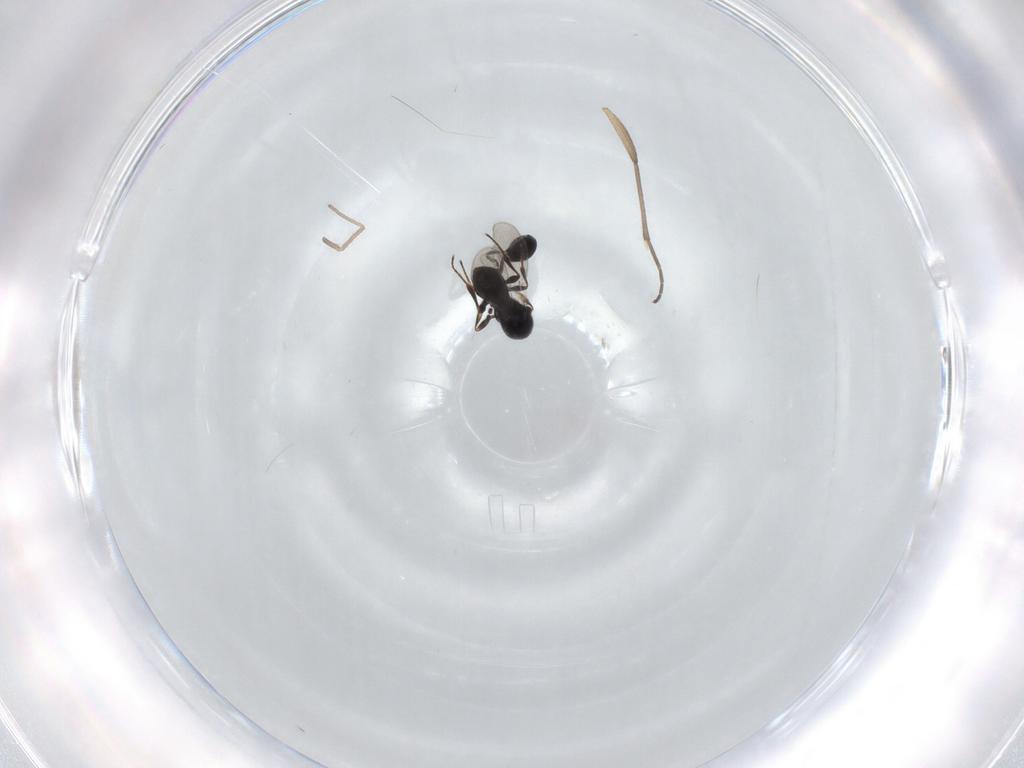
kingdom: Animalia
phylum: Arthropoda
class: Insecta
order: Hymenoptera
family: Platygastridae
